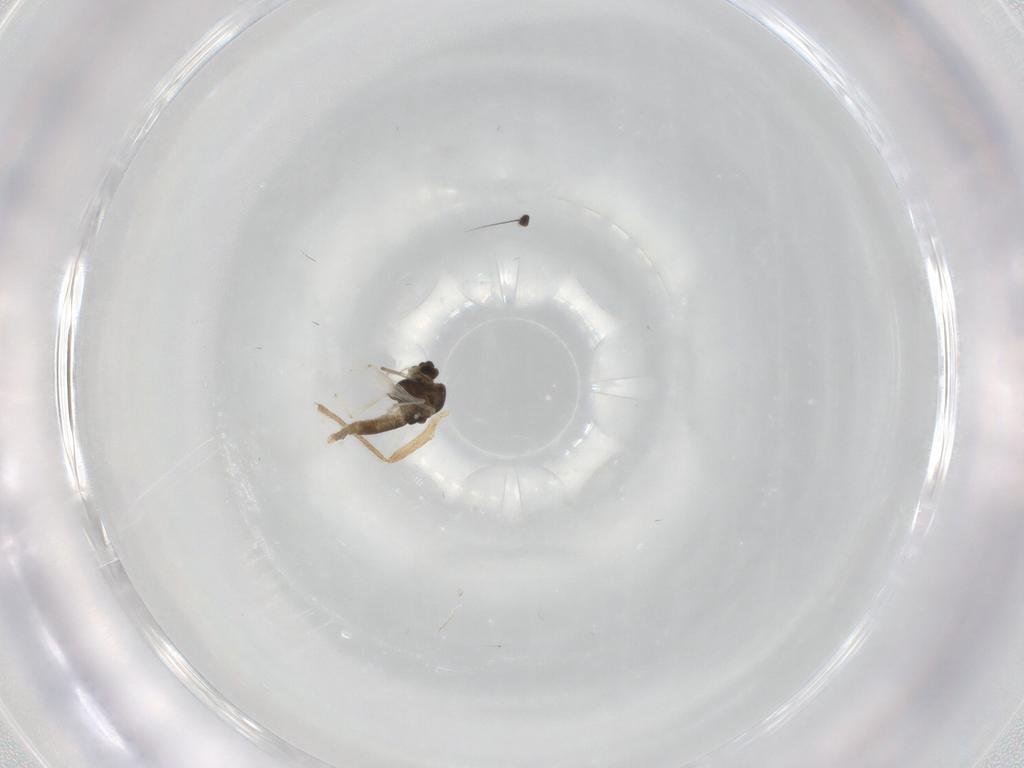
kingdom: Animalia
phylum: Arthropoda
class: Insecta
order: Diptera
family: Chironomidae
